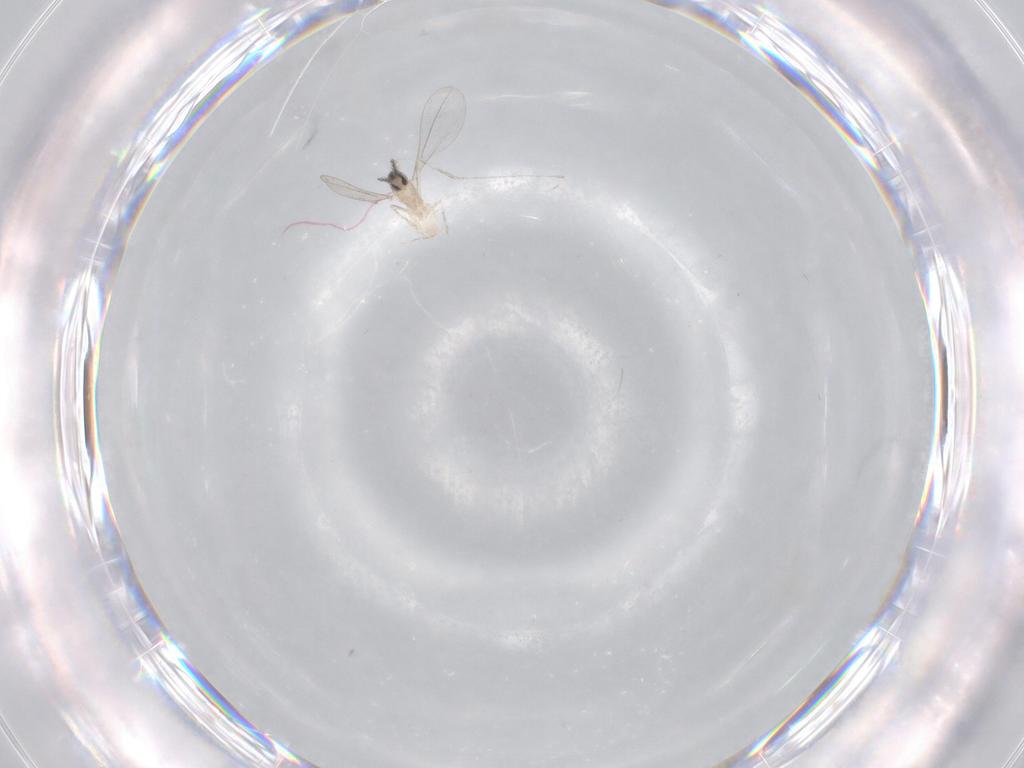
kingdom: Animalia
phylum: Arthropoda
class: Insecta
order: Diptera
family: Cecidomyiidae
